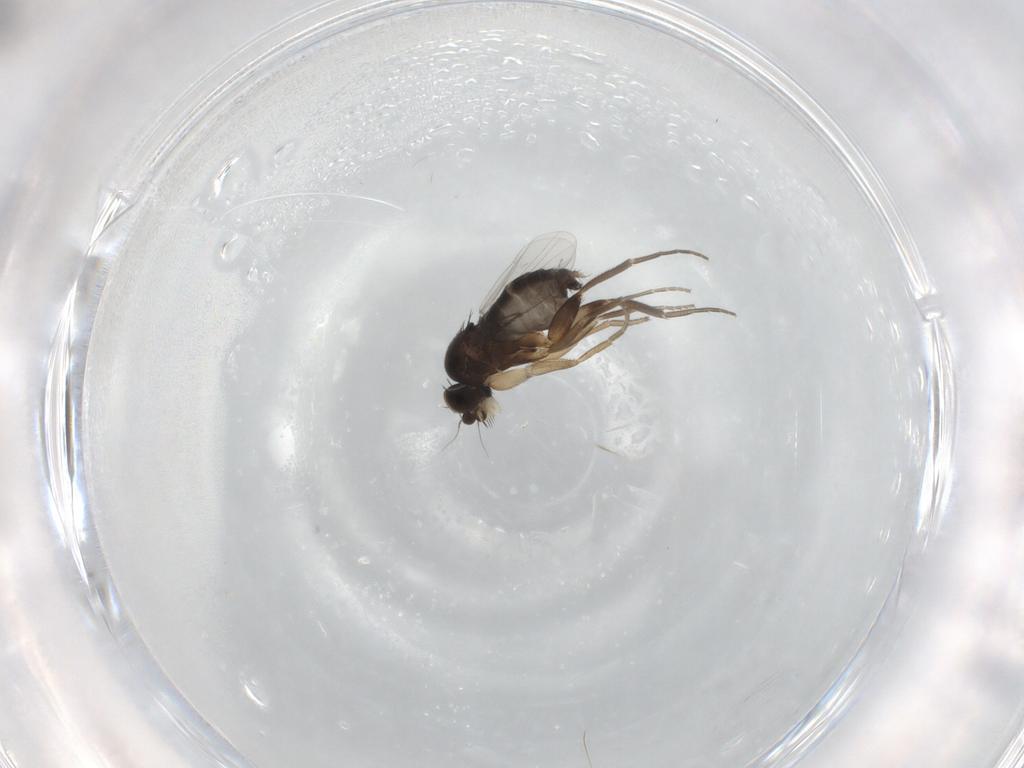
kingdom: Animalia
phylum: Arthropoda
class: Insecta
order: Diptera
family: Phoridae
